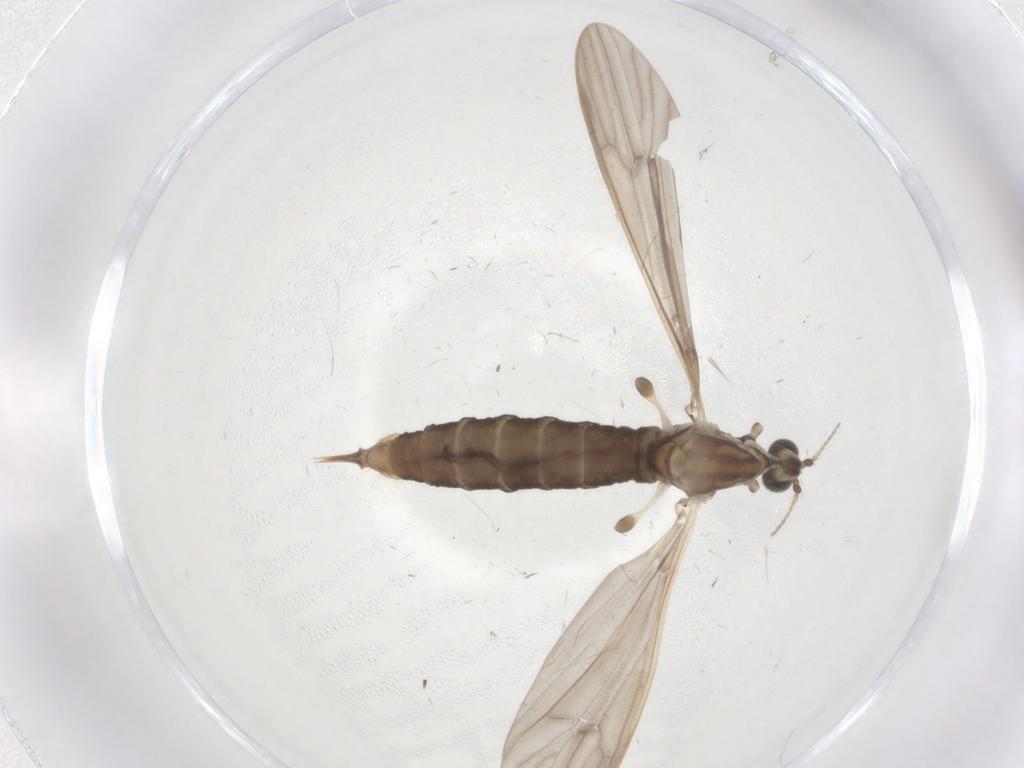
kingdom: Animalia
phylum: Arthropoda
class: Insecta
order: Diptera
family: Limoniidae
